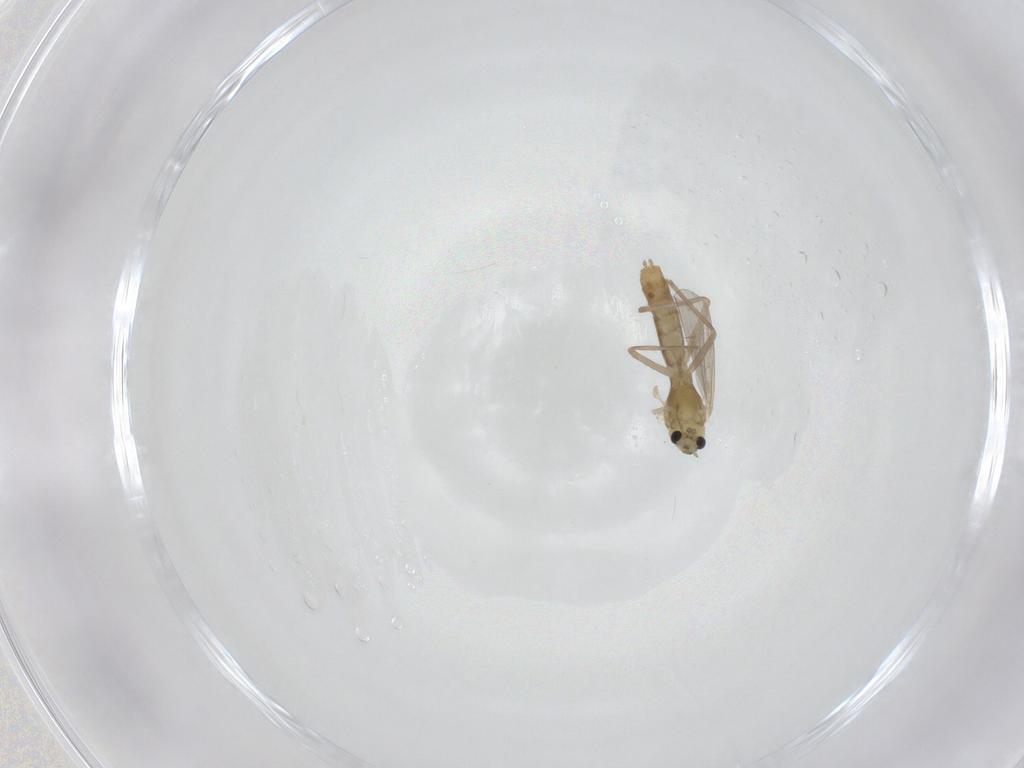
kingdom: Animalia
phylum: Arthropoda
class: Insecta
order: Diptera
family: Chironomidae
